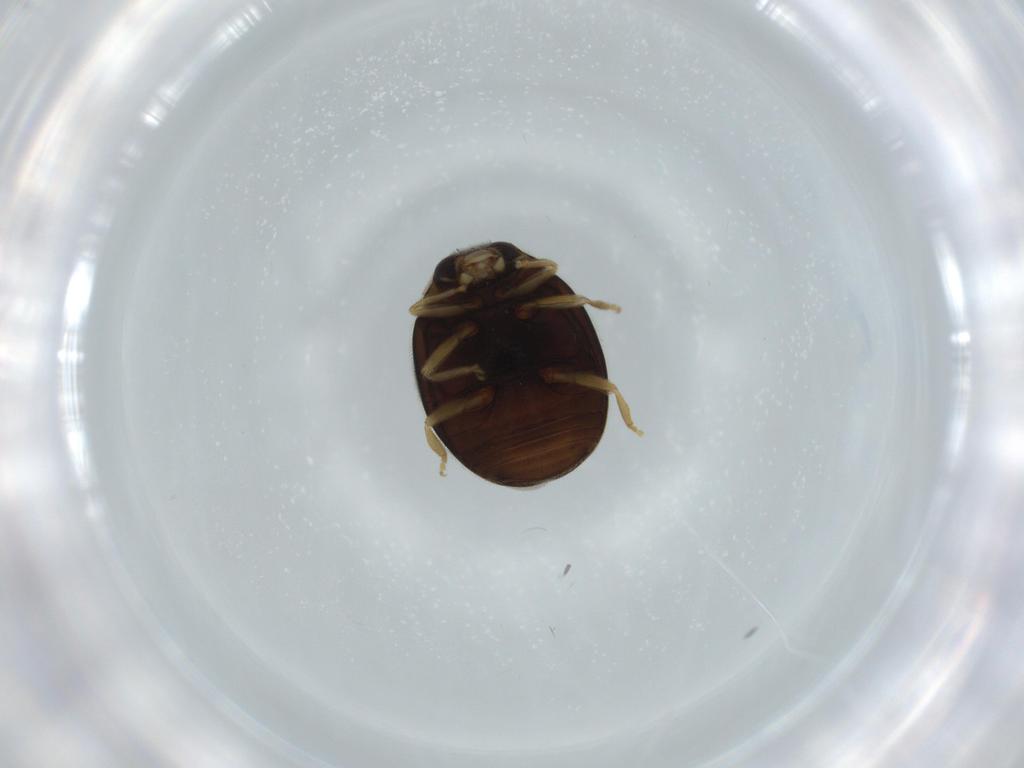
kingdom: Animalia
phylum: Arthropoda
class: Insecta
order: Coleoptera
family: Coccinellidae
